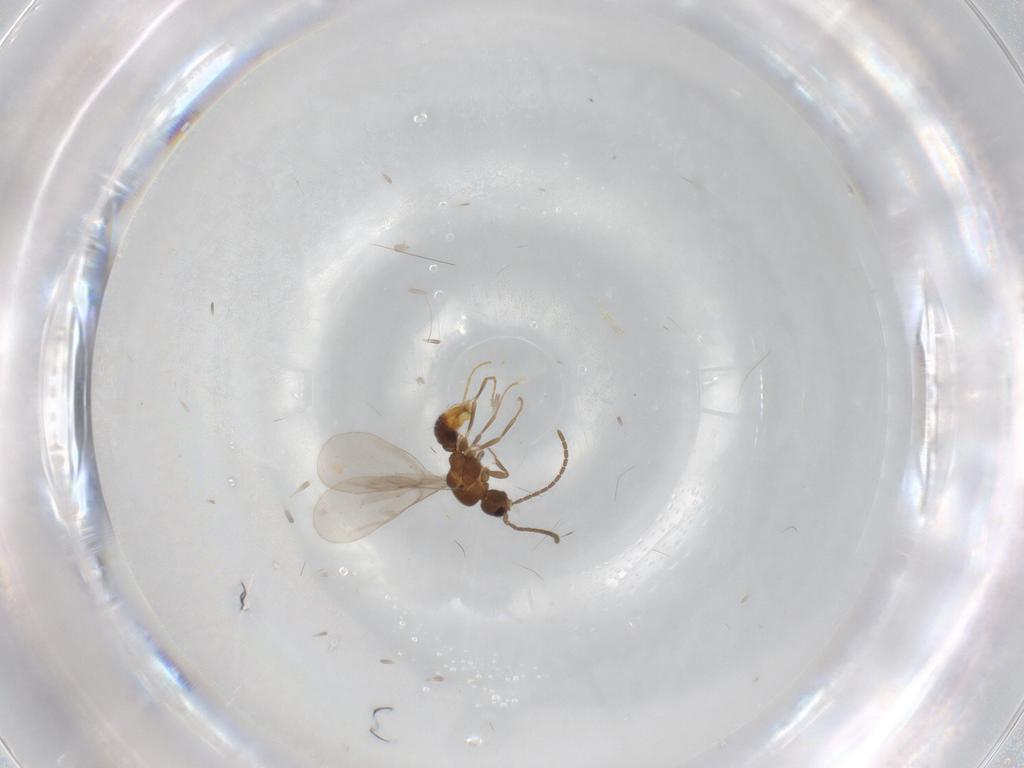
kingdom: Animalia
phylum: Arthropoda
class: Insecta
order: Hymenoptera
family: Formicidae
